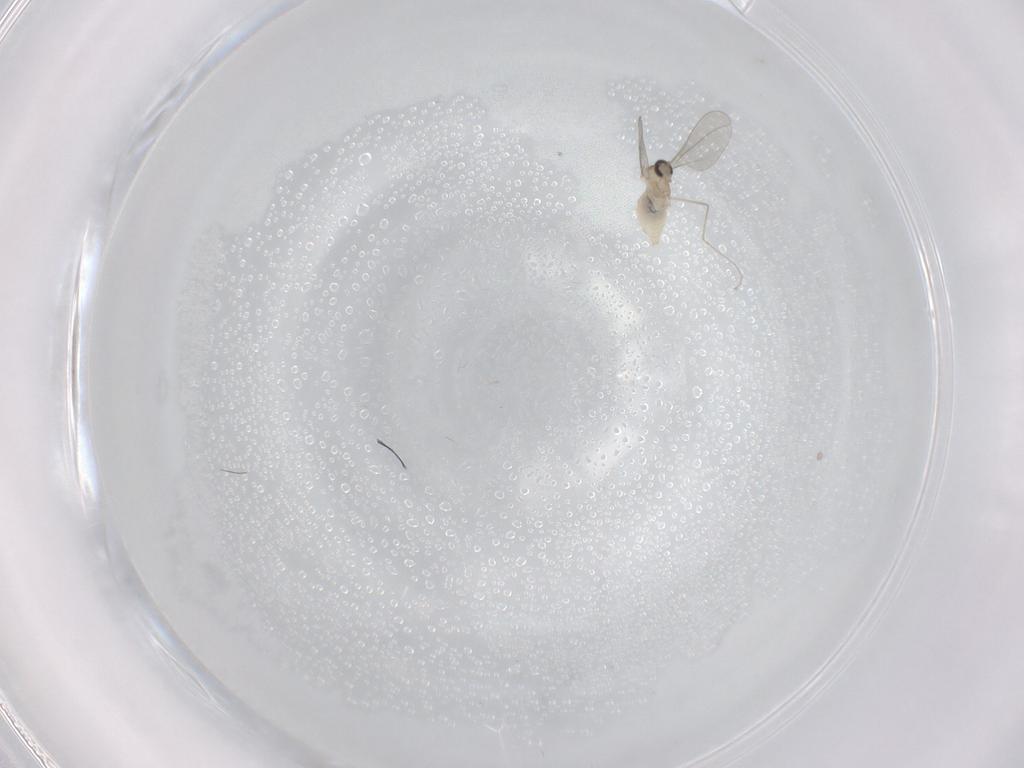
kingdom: Animalia
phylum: Arthropoda
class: Insecta
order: Diptera
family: Cecidomyiidae
